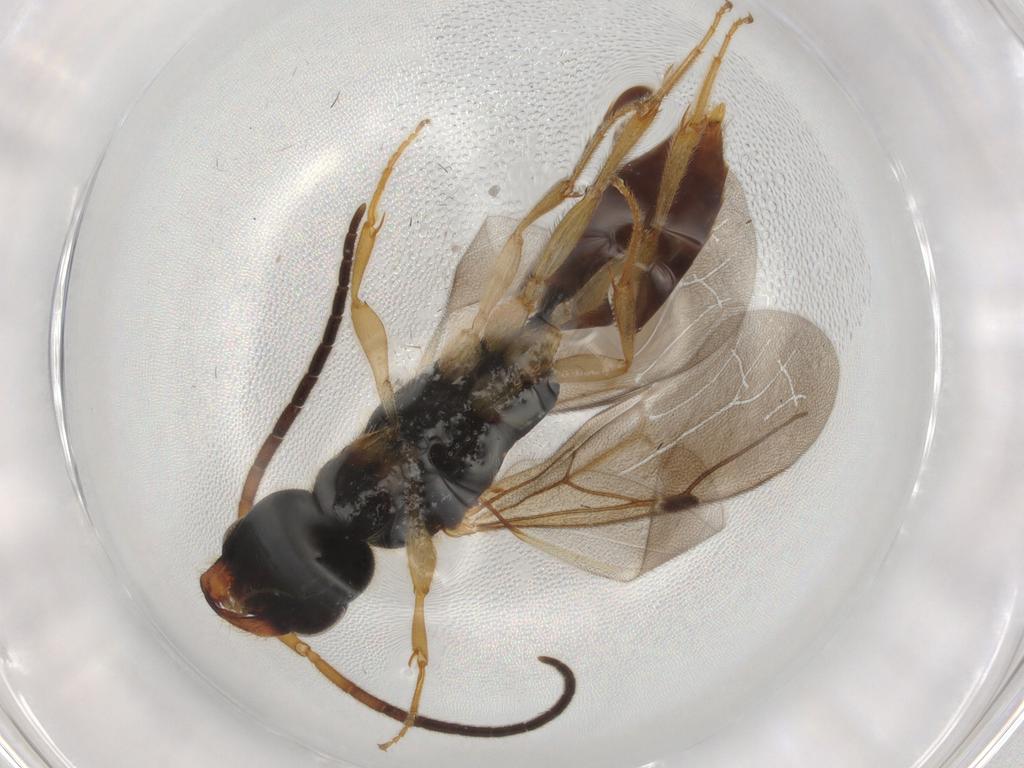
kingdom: Animalia
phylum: Arthropoda
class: Insecta
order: Hymenoptera
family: Bethylidae
